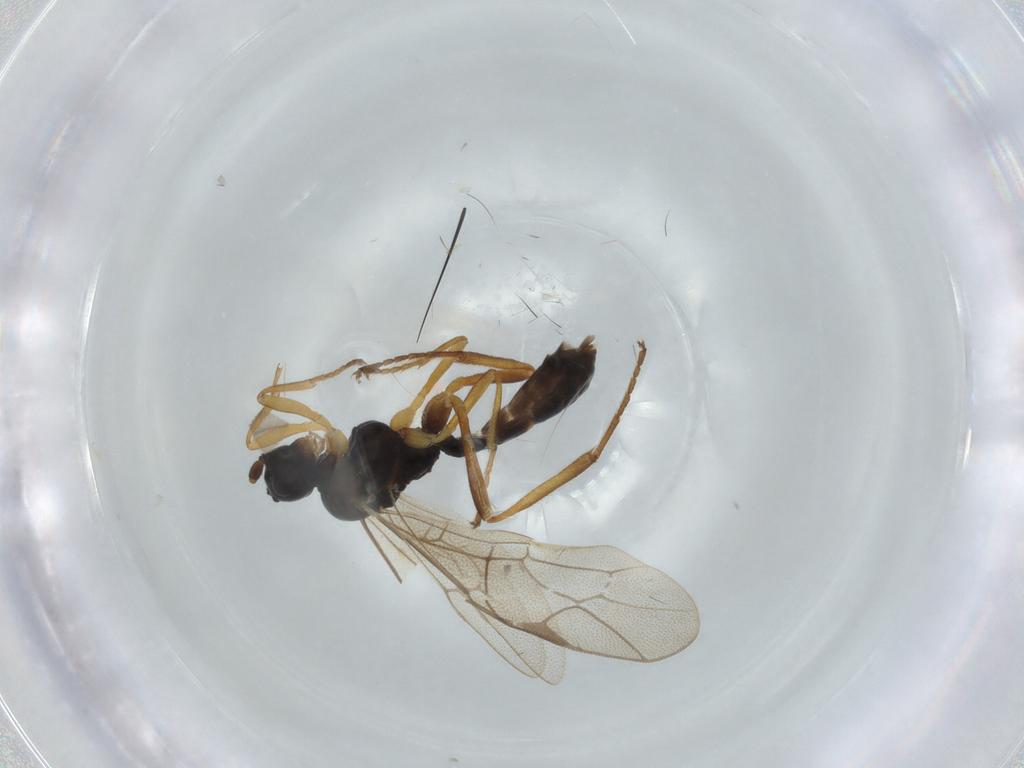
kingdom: Animalia
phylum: Arthropoda
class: Insecta
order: Hymenoptera
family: Ichneumonidae
